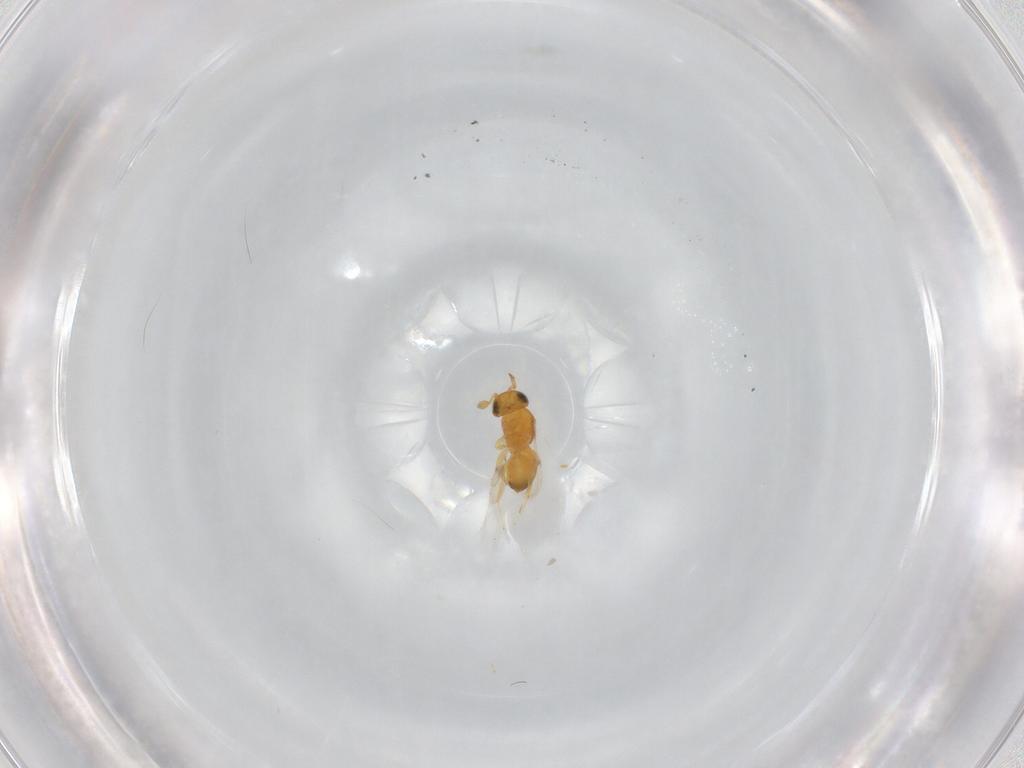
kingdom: Animalia
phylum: Arthropoda
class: Insecta
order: Hymenoptera
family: Scelionidae
